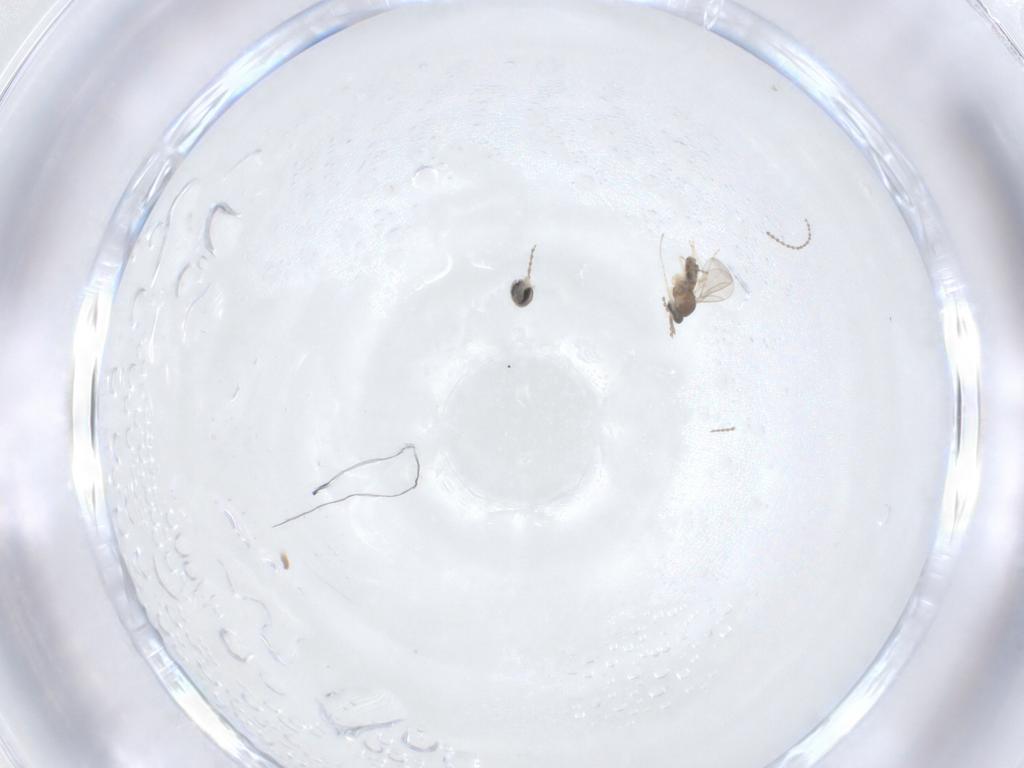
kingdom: Animalia
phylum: Arthropoda
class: Insecta
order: Diptera
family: Cecidomyiidae
